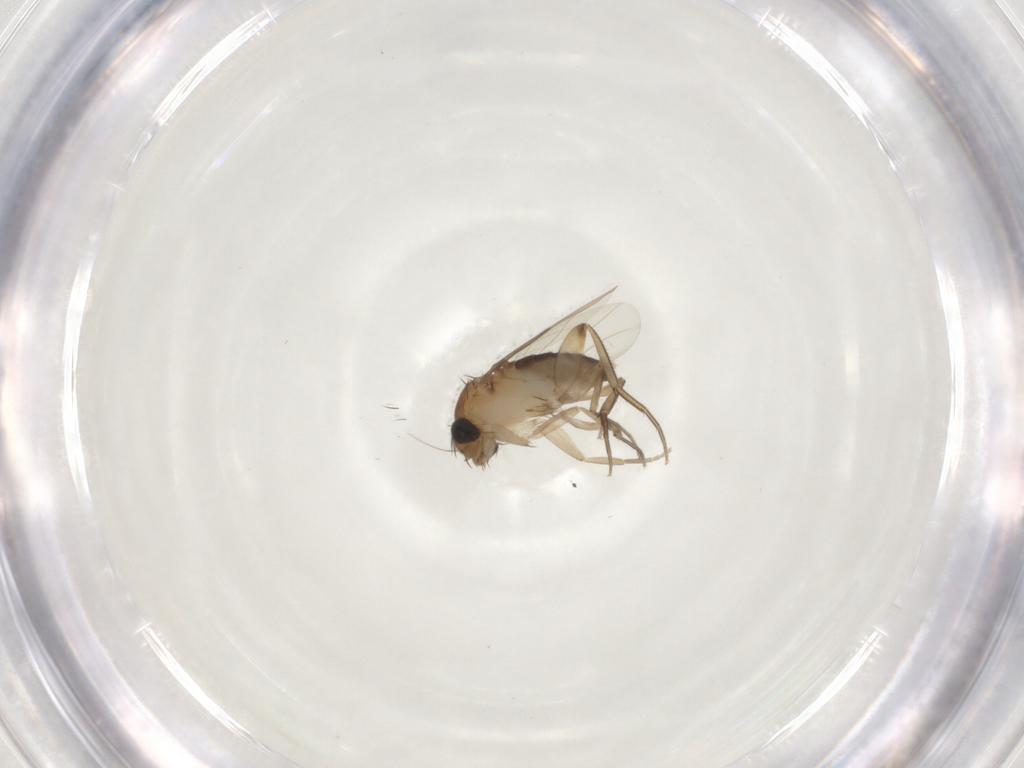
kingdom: Animalia
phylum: Arthropoda
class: Insecta
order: Diptera
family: Phoridae
